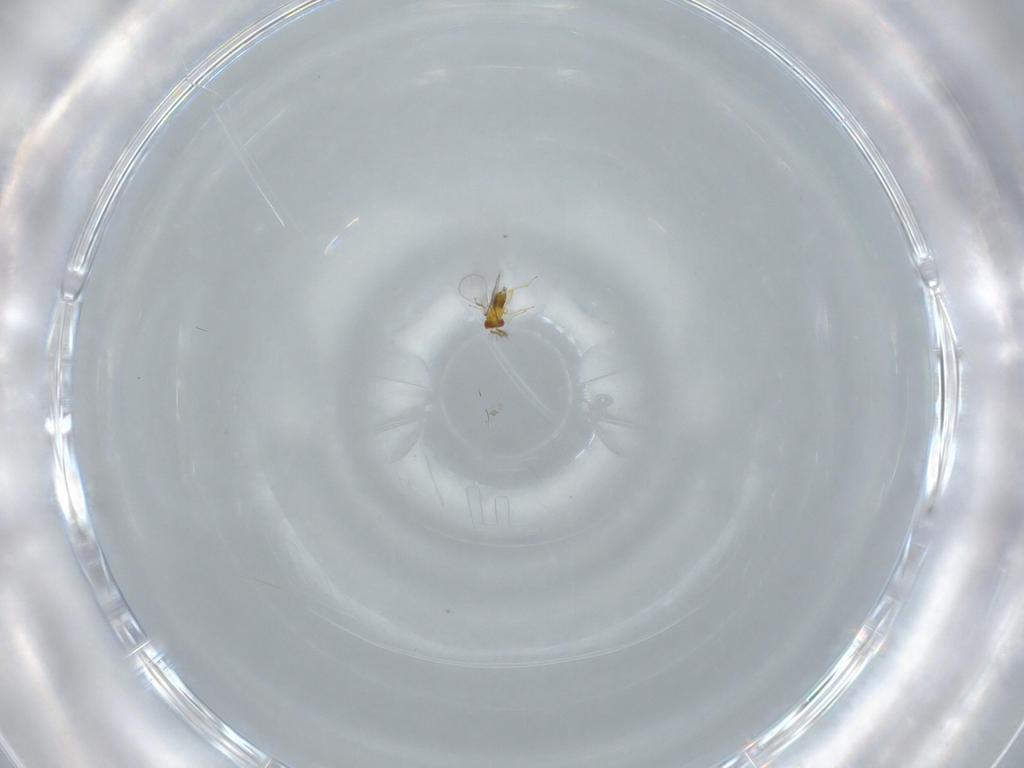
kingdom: Animalia
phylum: Arthropoda
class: Insecta
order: Hymenoptera
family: Trichogrammatidae
